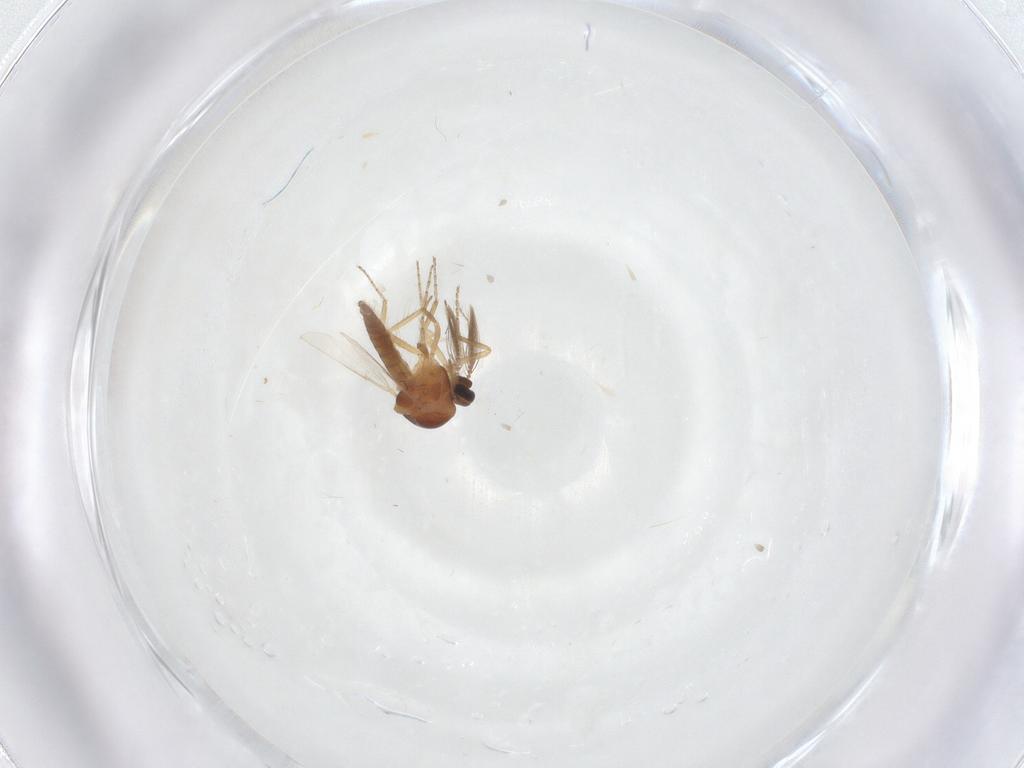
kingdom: Animalia
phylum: Arthropoda
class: Insecta
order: Diptera
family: Ceratopogonidae
